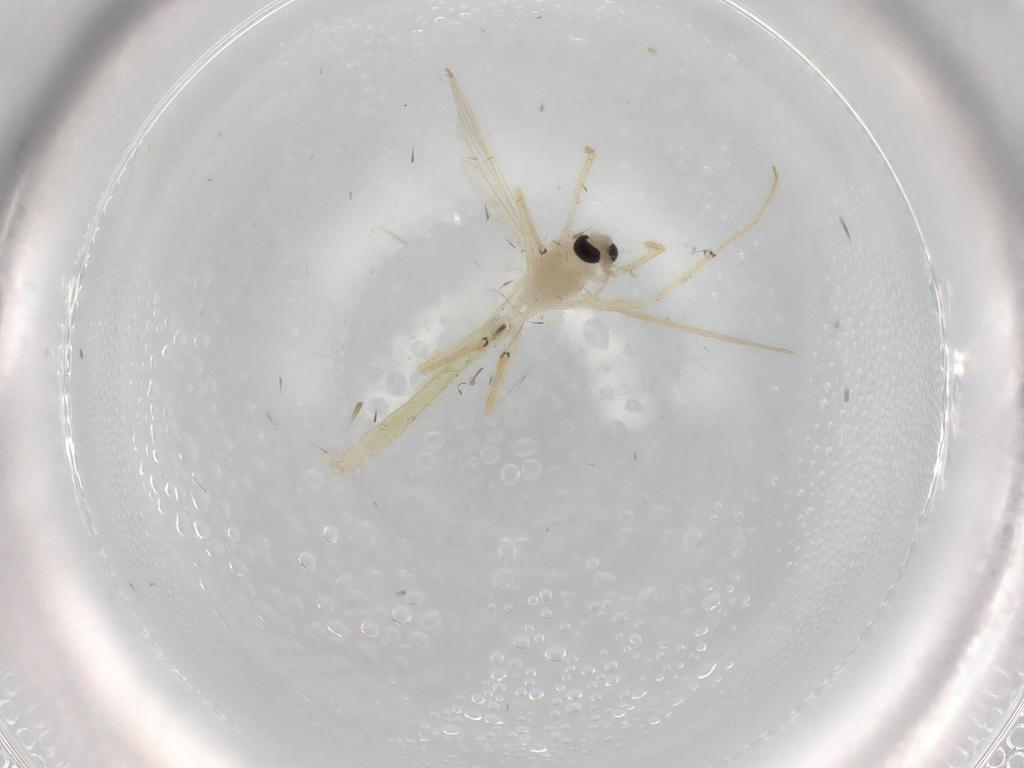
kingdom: Animalia
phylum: Arthropoda
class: Insecta
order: Diptera
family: Chironomidae
